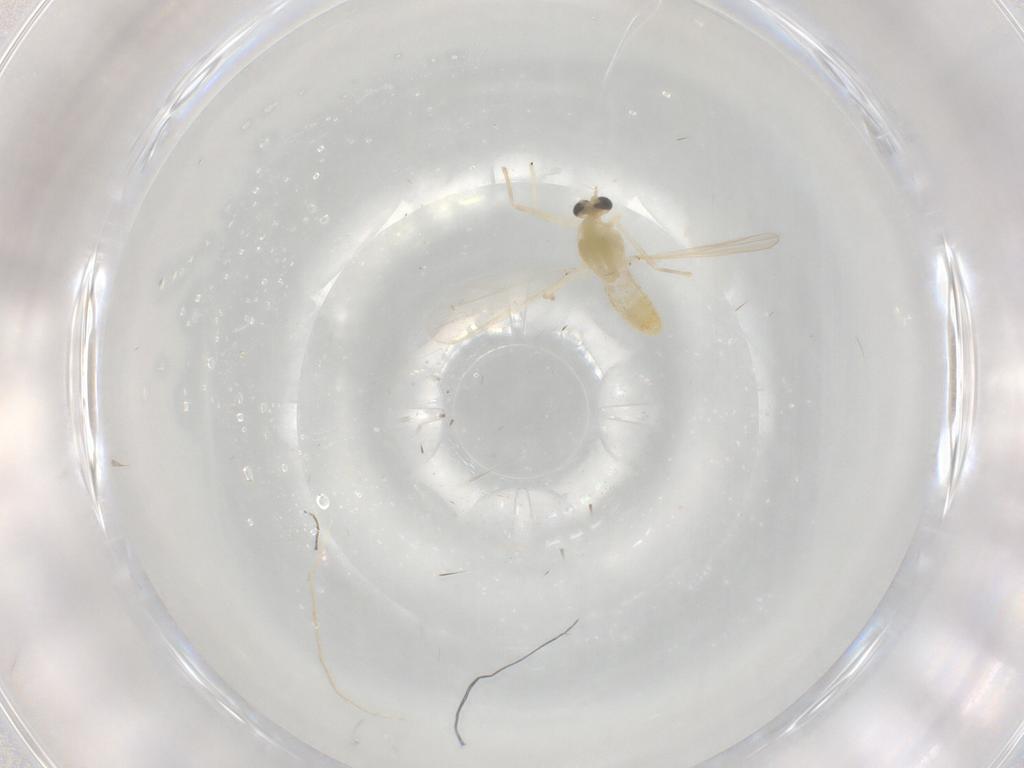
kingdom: Animalia
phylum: Arthropoda
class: Insecta
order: Diptera
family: Chironomidae
